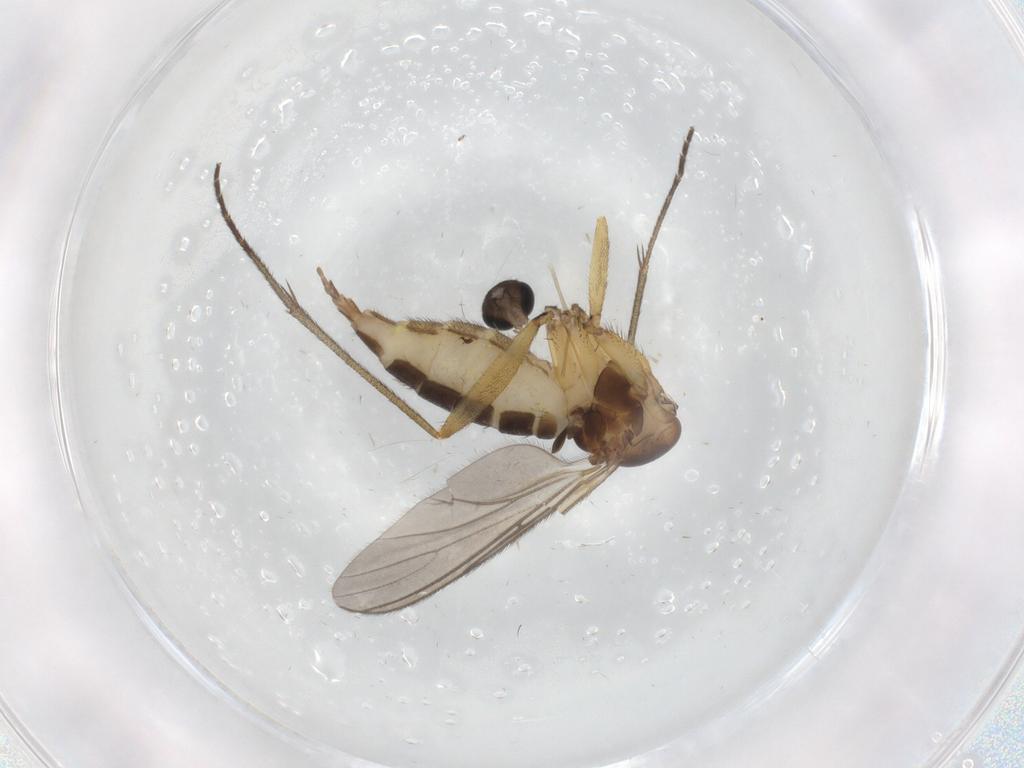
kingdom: Animalia
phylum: Arthropoda
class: Insecta
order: Diptera
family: Sciaridae
